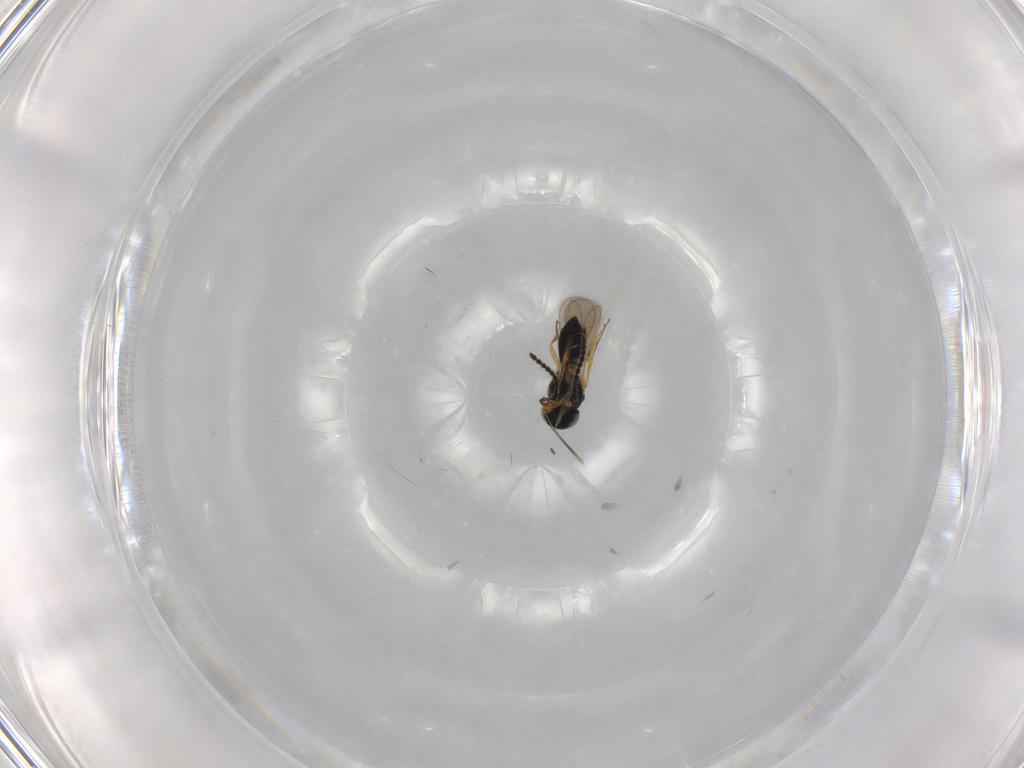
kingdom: Animalia
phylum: Arthropoda
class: Insecta
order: Hymenoptera
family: Scelionidae
